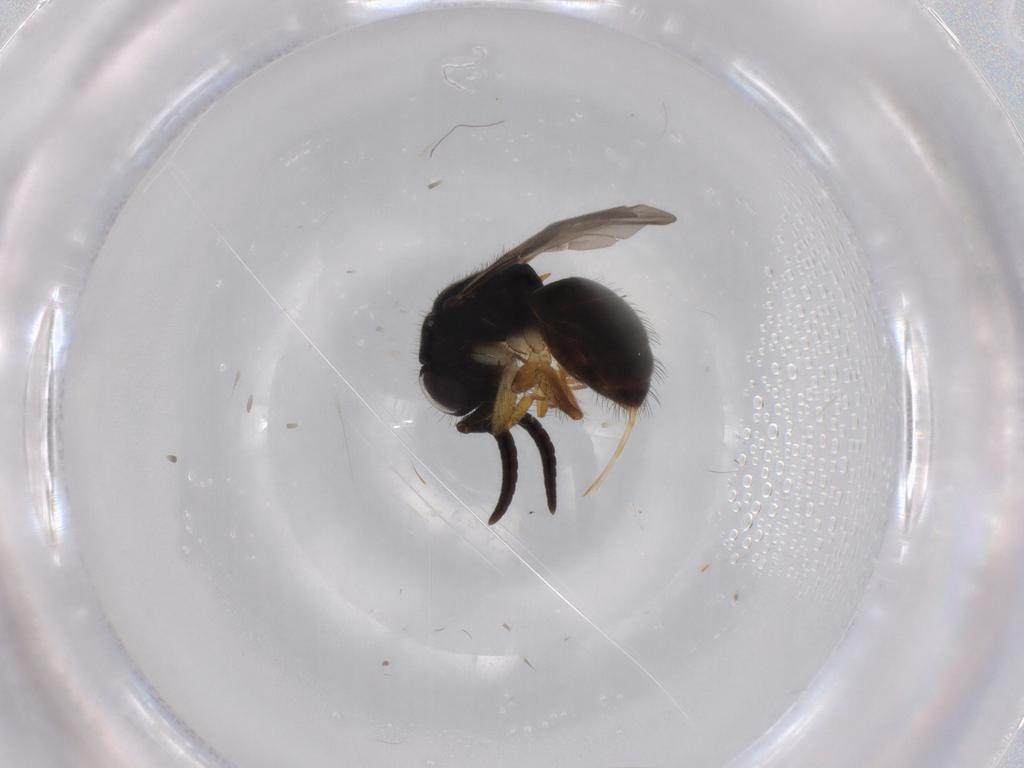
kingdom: Animalia
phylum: Arthropoda
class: Insecta
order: Hymenoptera
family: Chrysididae
